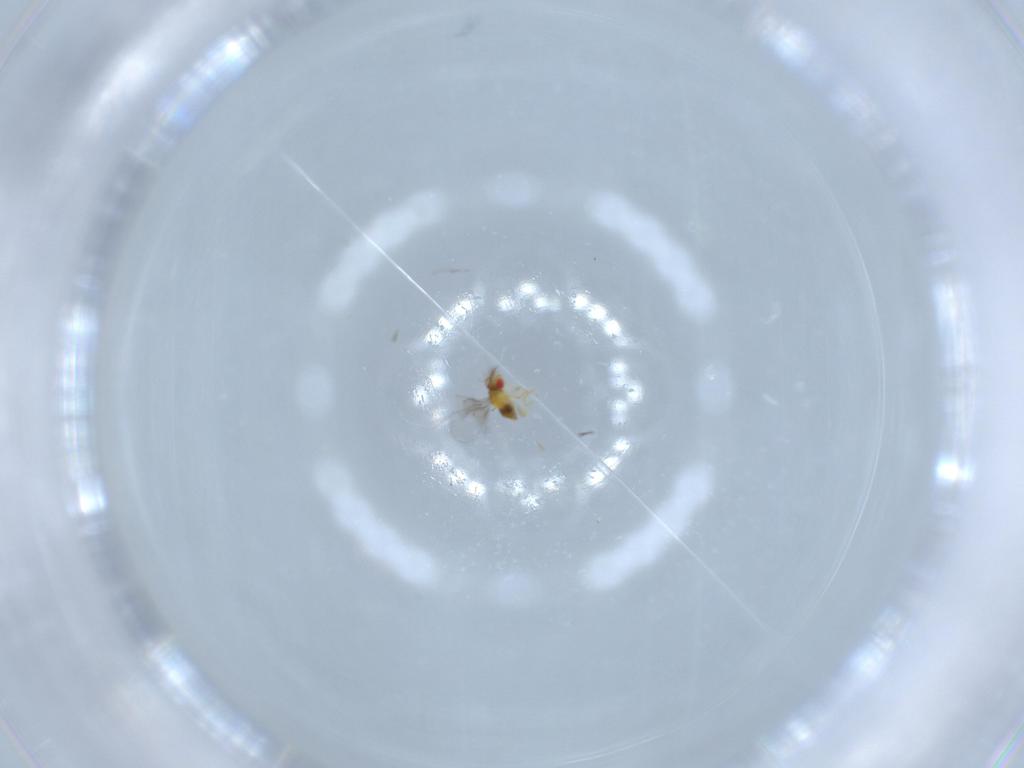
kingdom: Animalia
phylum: Arthropoda
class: Insecta
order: Hymenoptera
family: Trichogrammatidae
